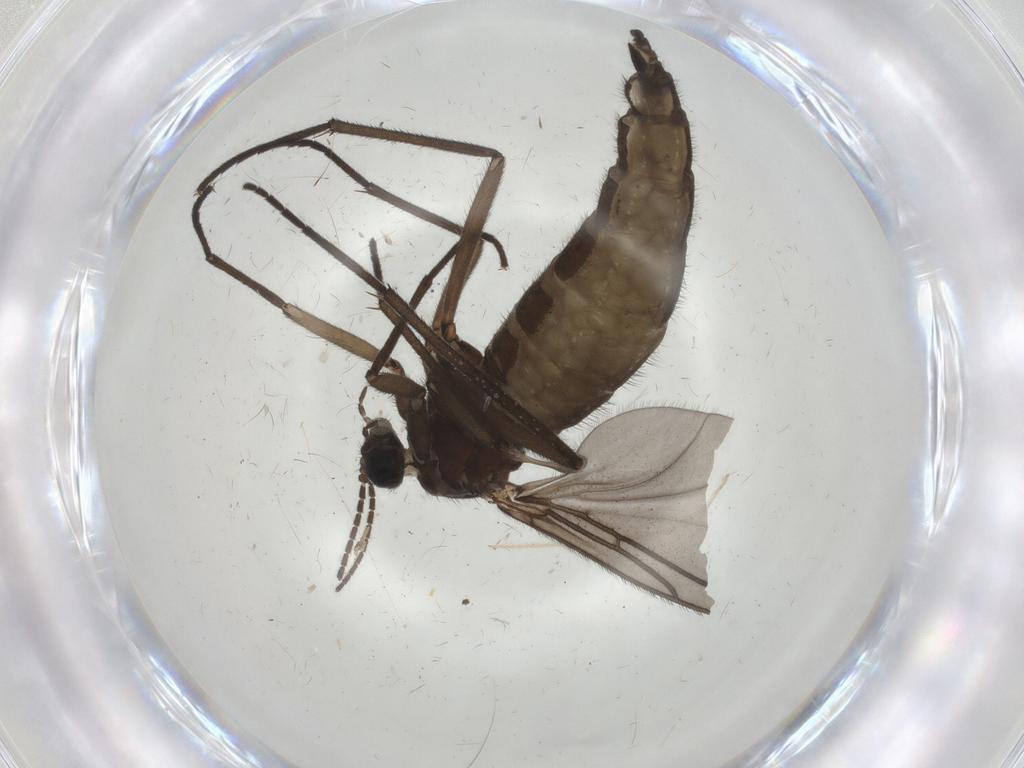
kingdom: Animalia
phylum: Arthropoda
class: Insecta
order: Diptera
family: Sciaridae
